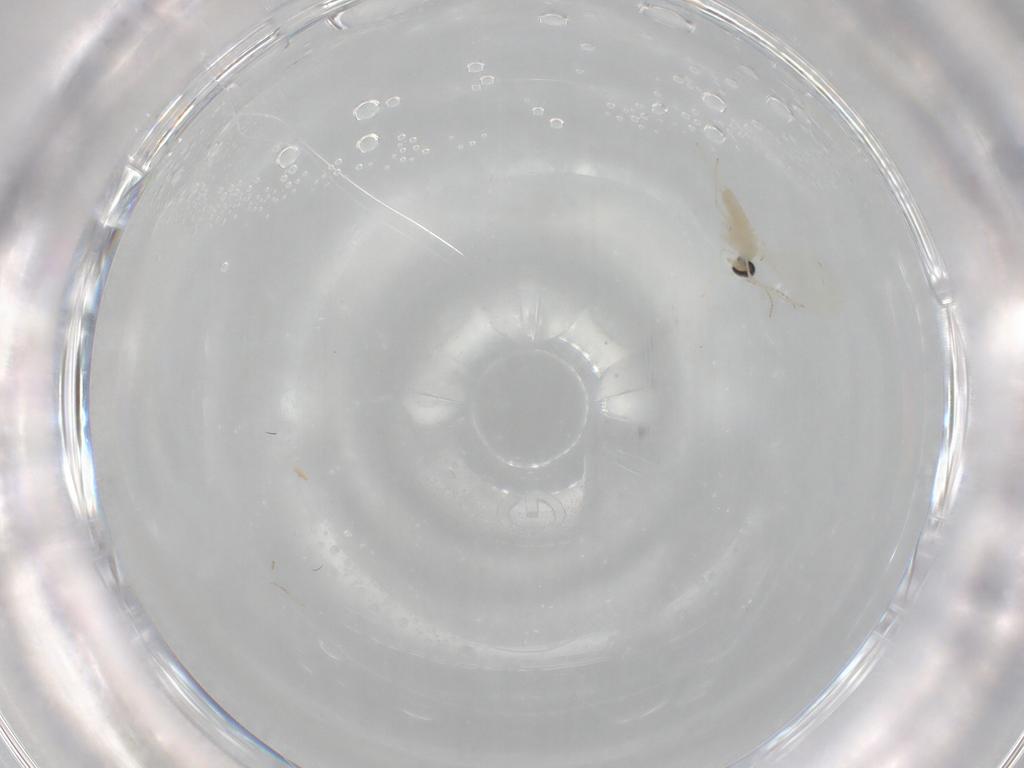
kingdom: Animalia
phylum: Arthropoda
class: Insecta
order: Diptera
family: Cecidomyiidae
